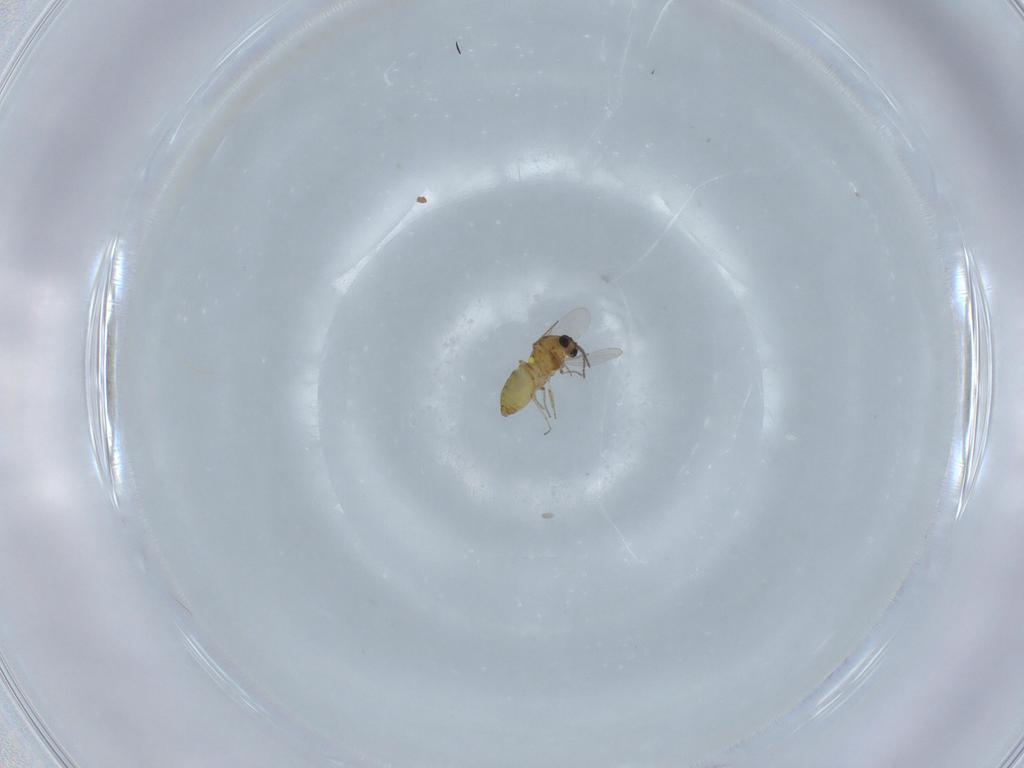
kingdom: Animalia
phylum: Arthropoda
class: Insecta
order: Diptera
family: Ceratopogonidae
